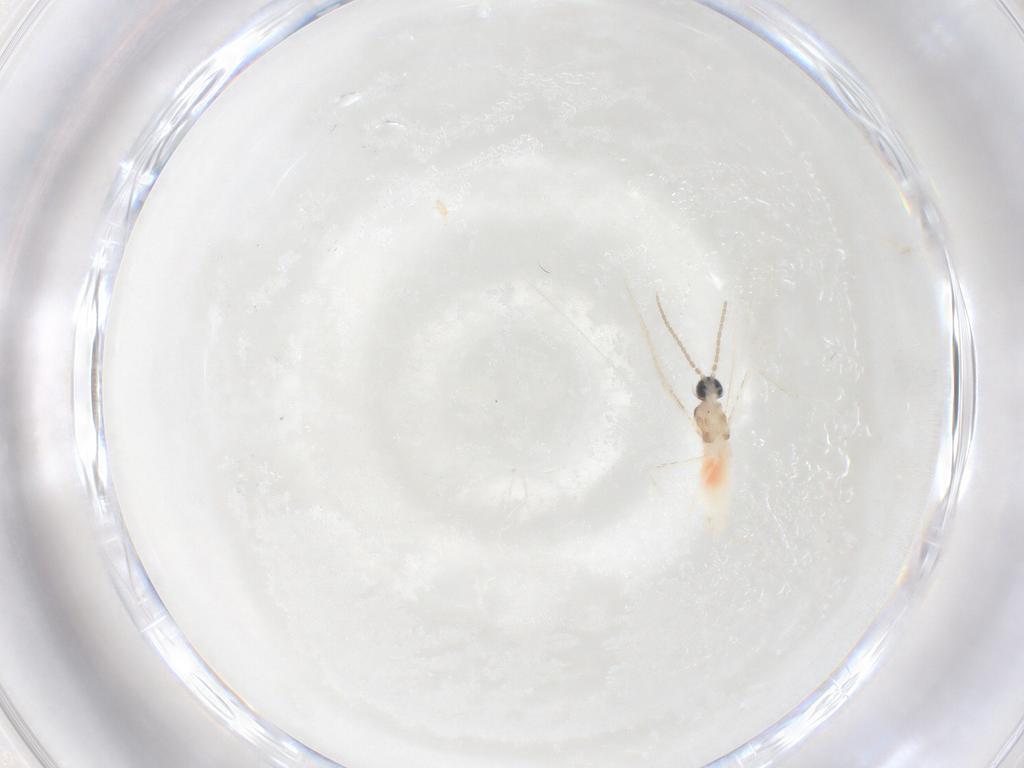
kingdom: Animalia
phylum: Arthropoda
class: Insecta
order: Diptera
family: Cecidomyiidae
